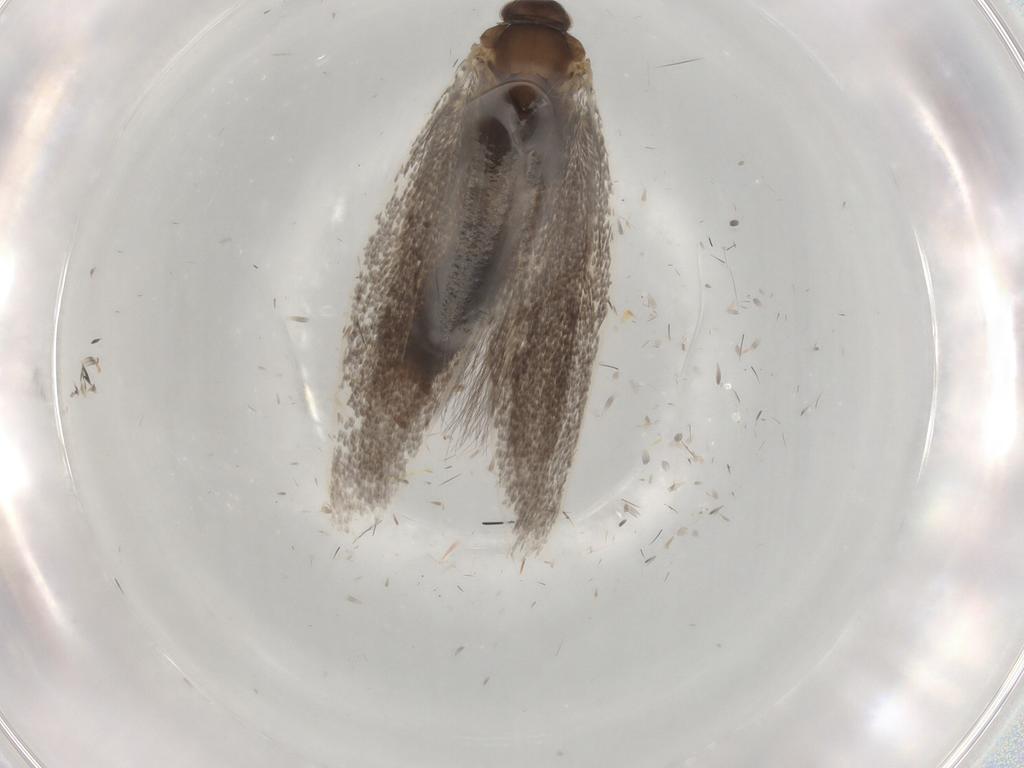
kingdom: Animalia
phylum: Arthropoda
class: Insecta
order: Lepidoptera
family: Elachistidae
